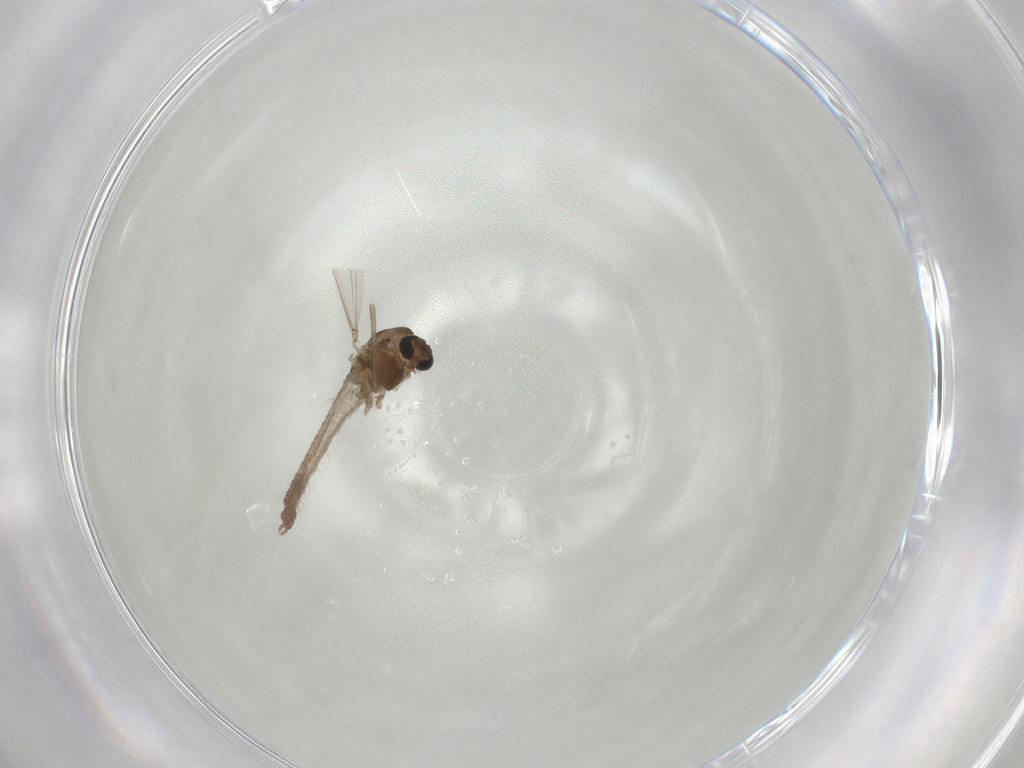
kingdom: Animalia
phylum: Arthropoda
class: Insecta
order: Diptera
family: Chironomidae
